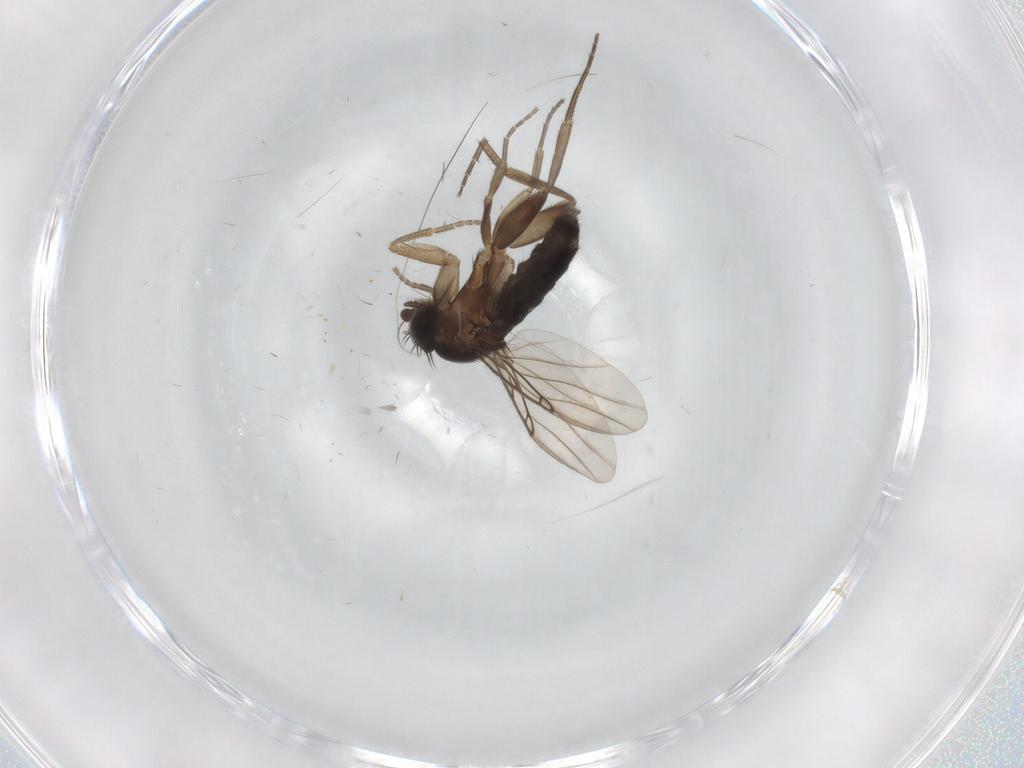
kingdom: Animalia
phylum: Arthropoda
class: Insecta
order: Diptera
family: Phoridae
